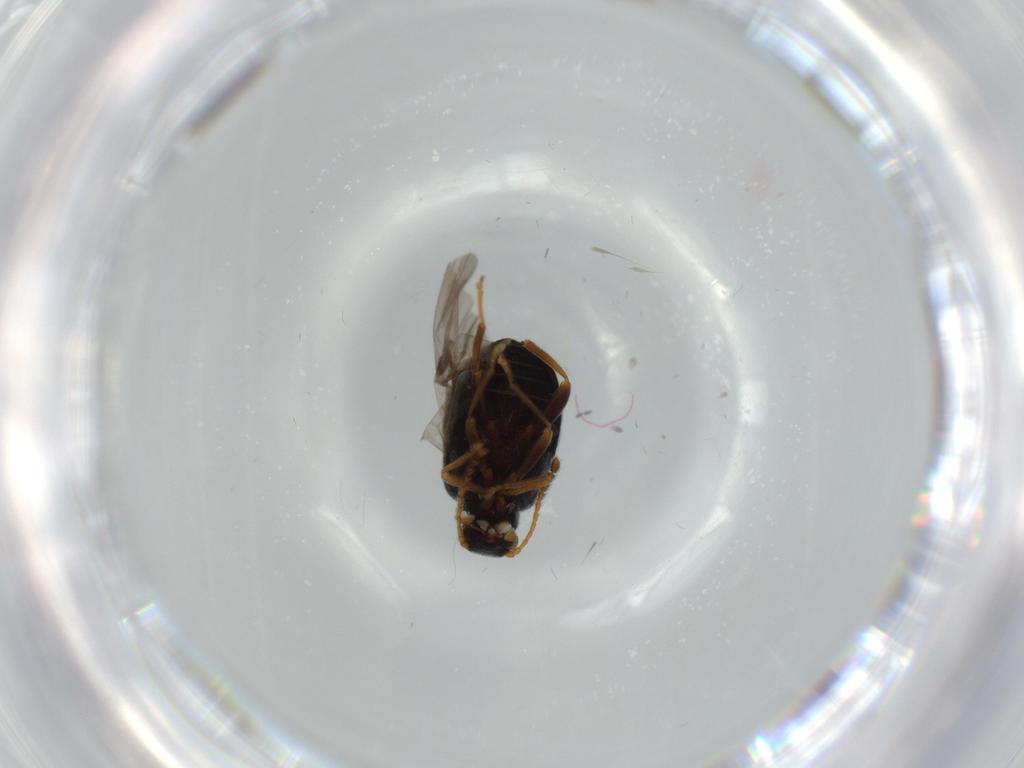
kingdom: Animalia
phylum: Arthropoda
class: Insecta
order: Coleoptera
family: Aderidae
